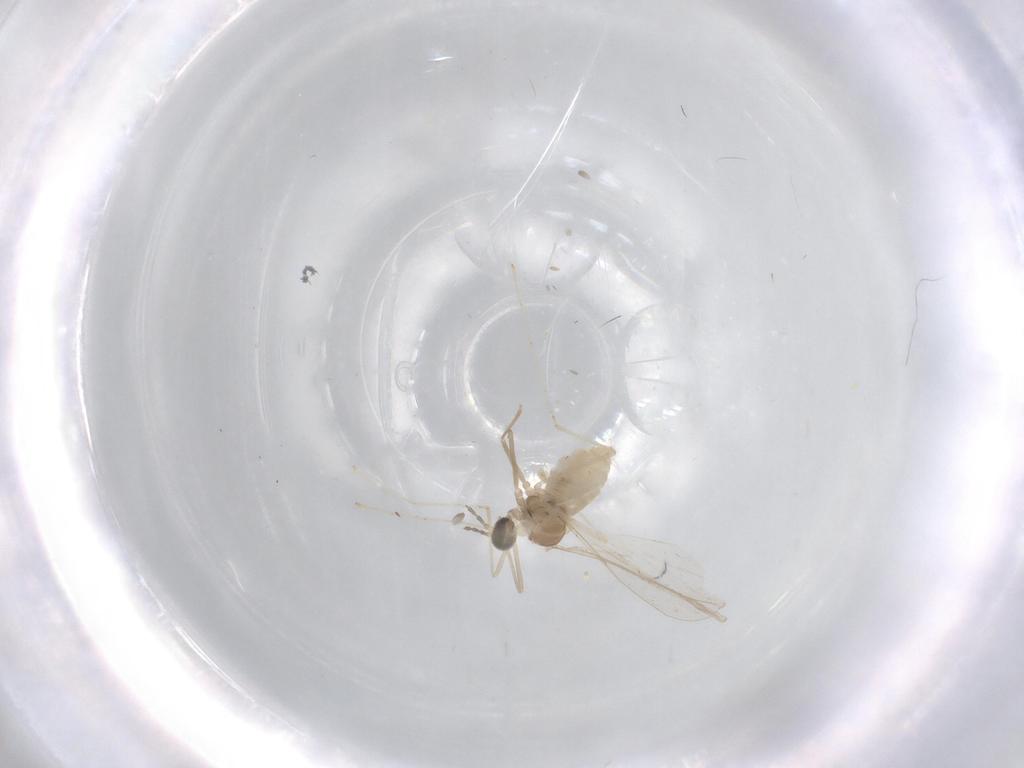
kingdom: Animalia
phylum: Arthropoda
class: Insecta
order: Diptera
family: Cecidomyiidae
